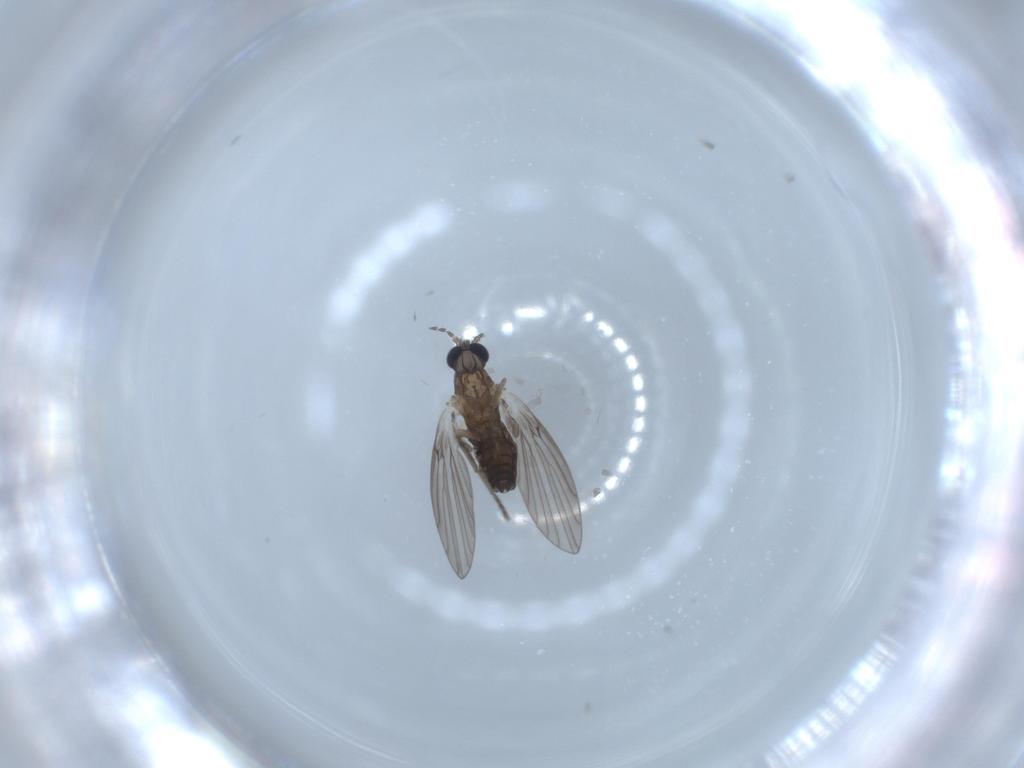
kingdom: Animalia
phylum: Arthropoda
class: Insecta
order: Diptera
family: Psychodidae
